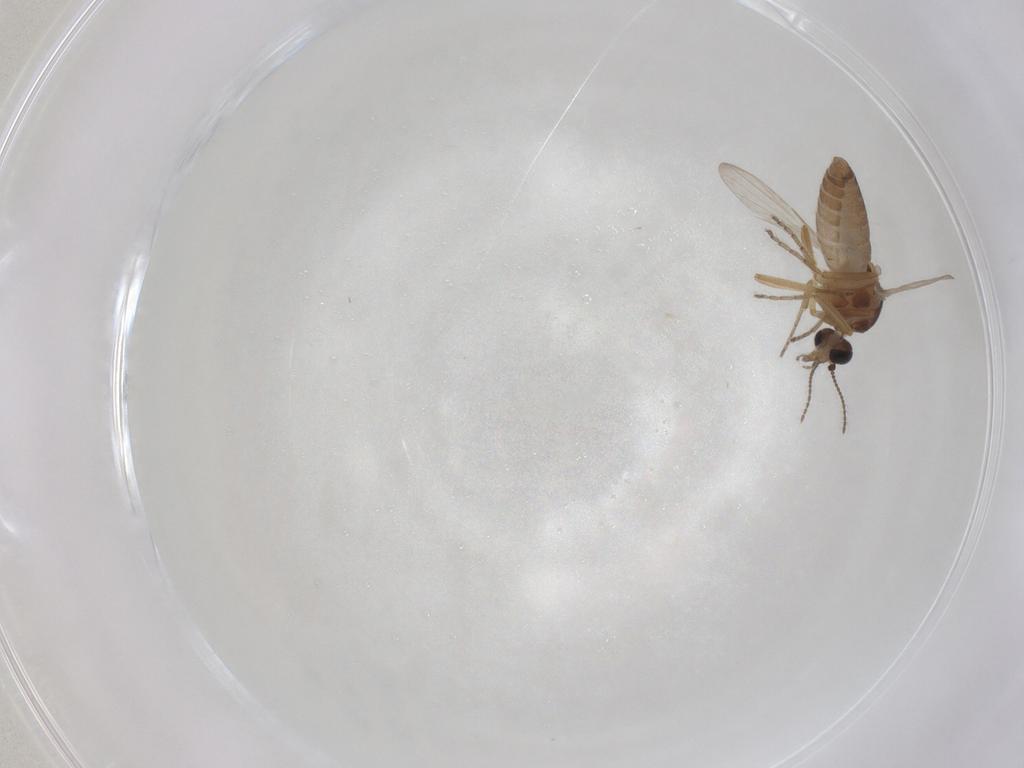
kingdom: Animalia
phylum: Arthropoda
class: Insecta
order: Diptera
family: Ceratopogonidae
